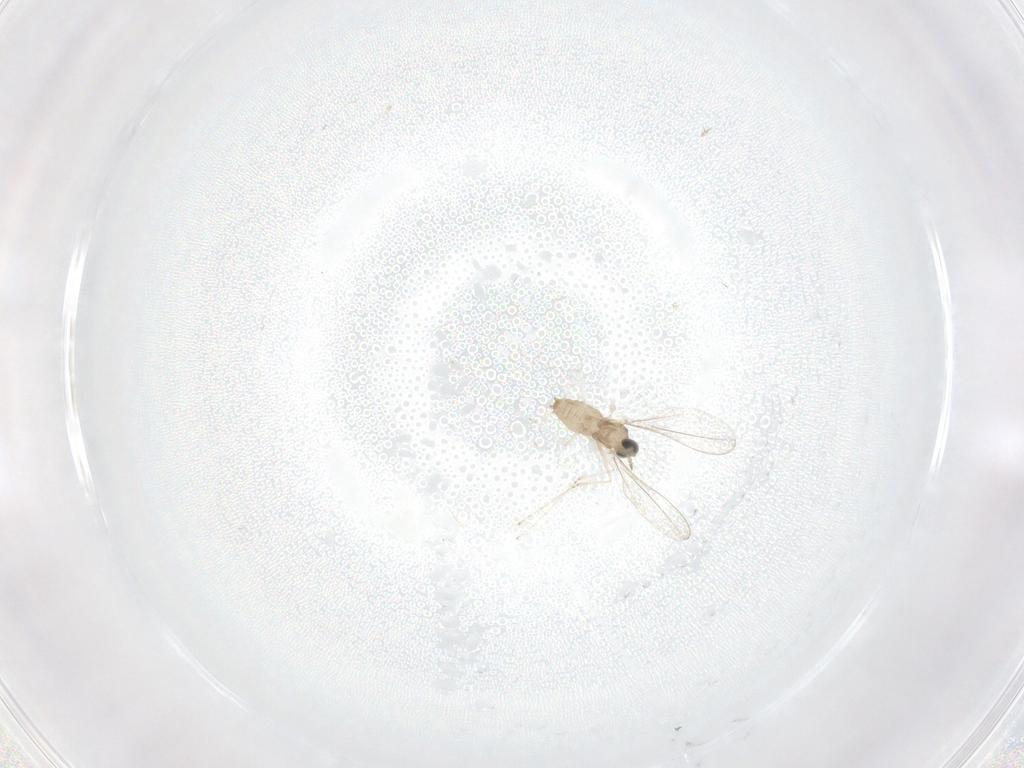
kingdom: Animalia
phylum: Arthropoda
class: Insecta
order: Diptera
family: Cecidomyiidae
